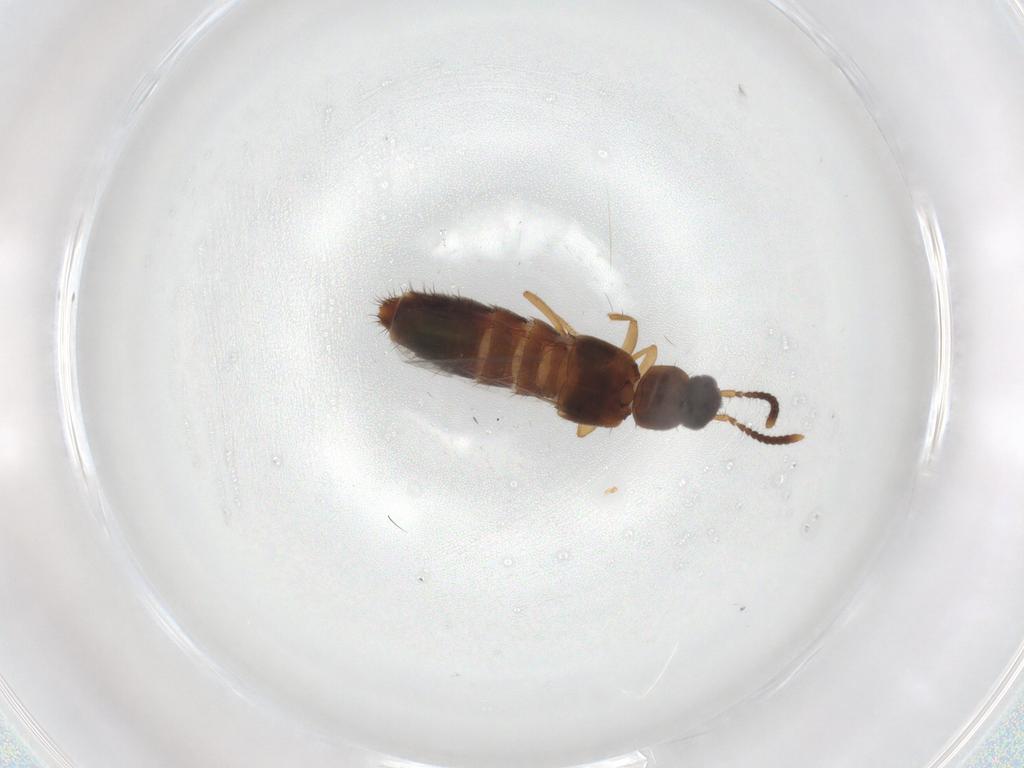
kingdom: Animalia
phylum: Arthropoda
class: Insecta
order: Coleoptera
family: Staphylinidae
